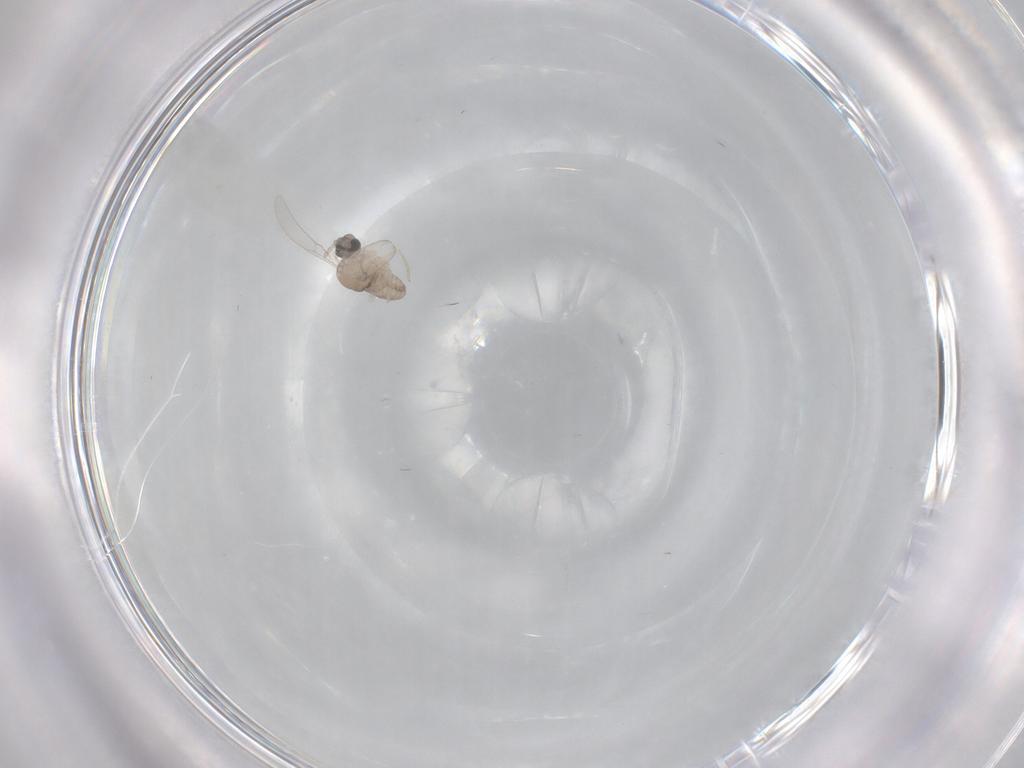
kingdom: Animalia
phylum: Arthropoda
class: Insecta
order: Diptera
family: Cecidomyiidae
